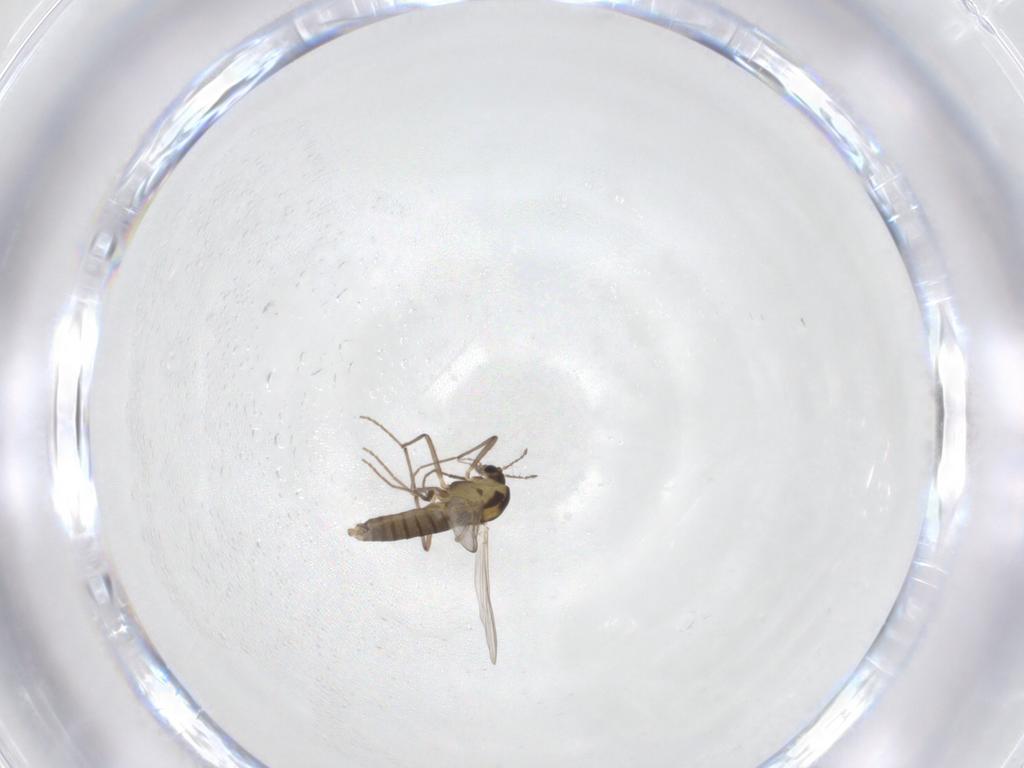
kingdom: Animalia
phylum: Arthropoda
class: Insecta
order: Diptera
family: Chironomidae
